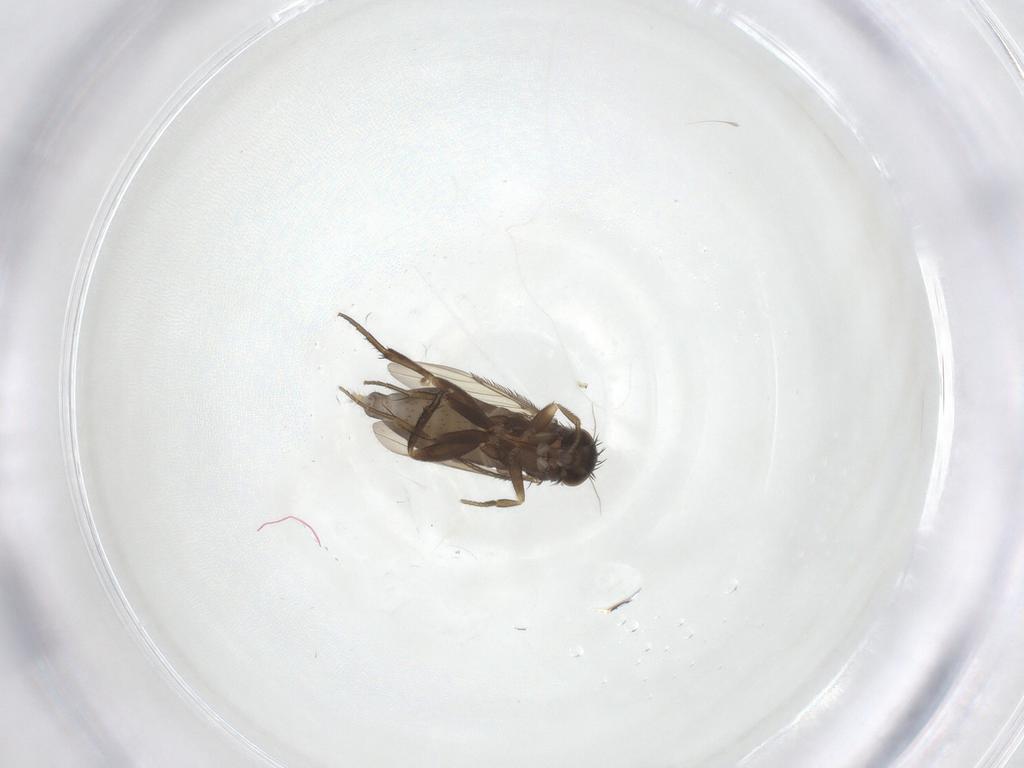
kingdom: Animalia
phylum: Arthropoda
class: Insecta
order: Diptera
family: Phoridae
